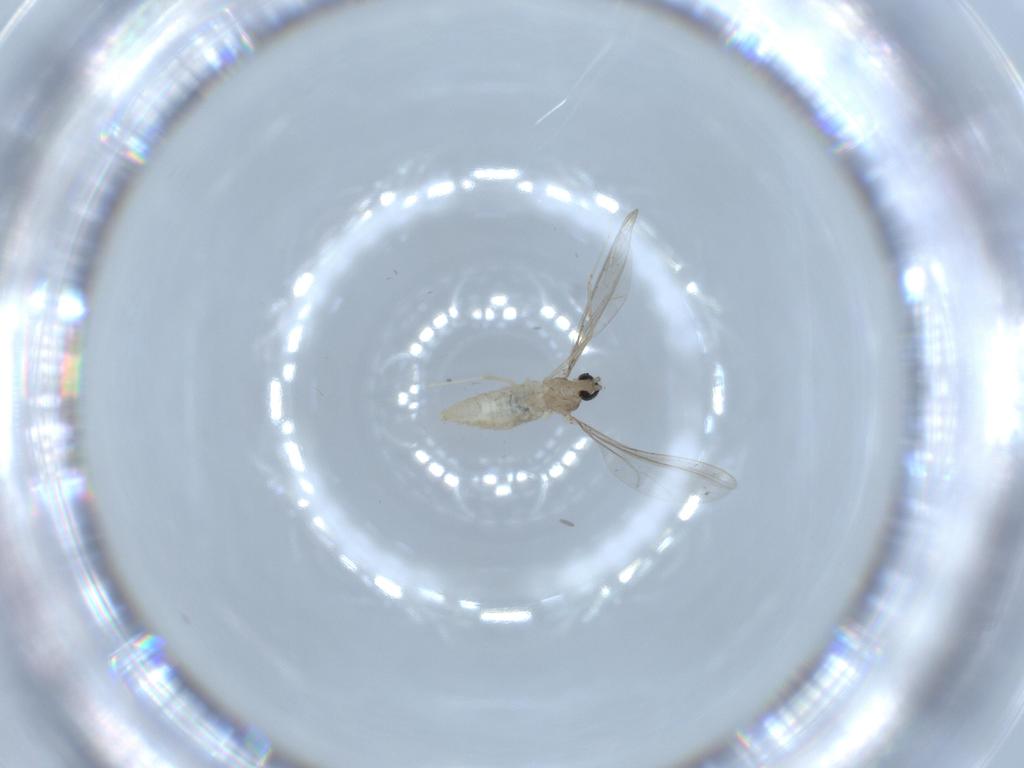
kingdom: Animalia
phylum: Arthropoda
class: Insecta
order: Diptera
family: Cecidomyiidae
